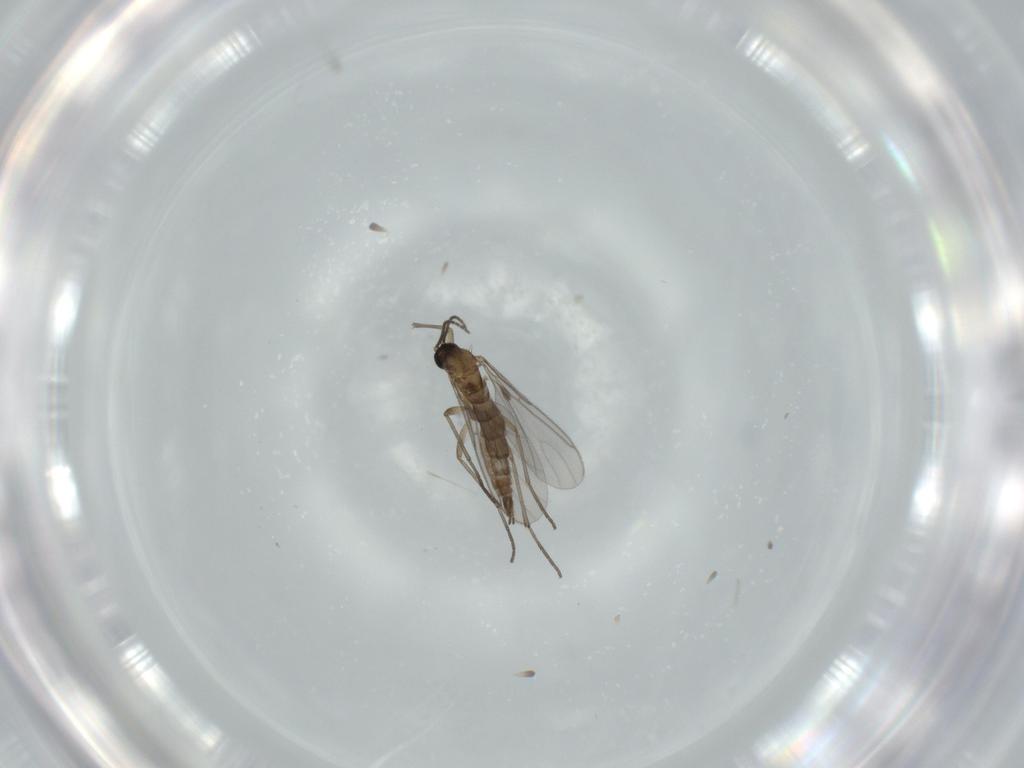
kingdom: Animalia
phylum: Arthropoda
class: Insecta
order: Diptera
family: Sciaridae
